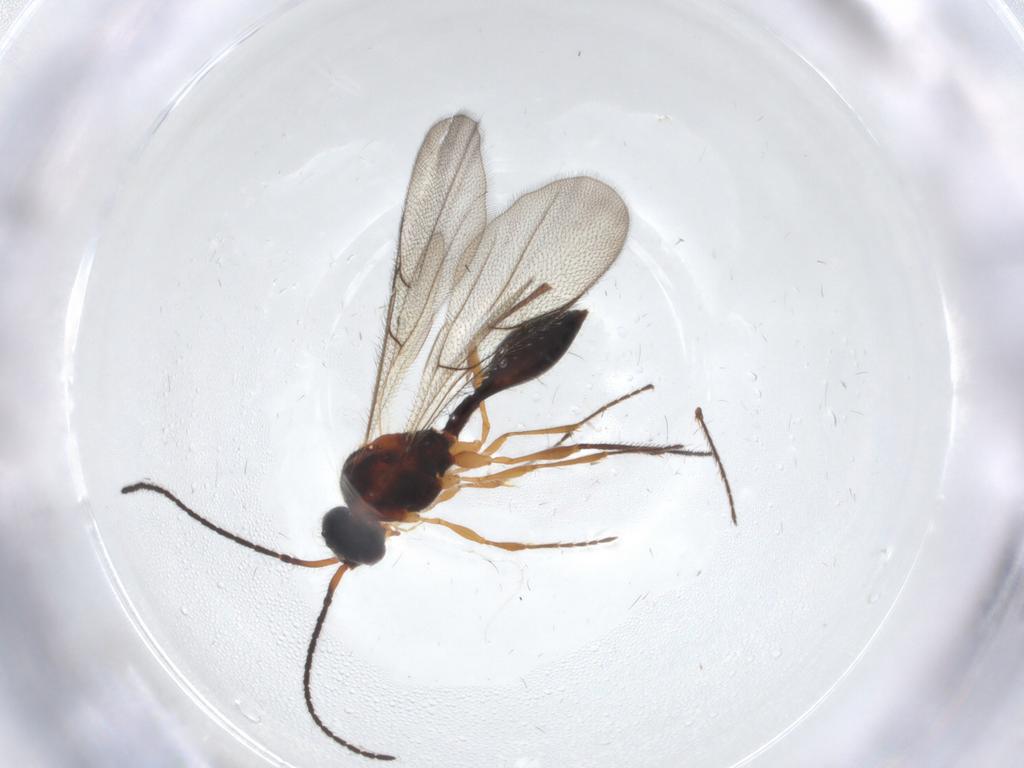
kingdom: Animalia
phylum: Arthropoda
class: Insecta
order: Hymenoptera
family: Diapriidae
